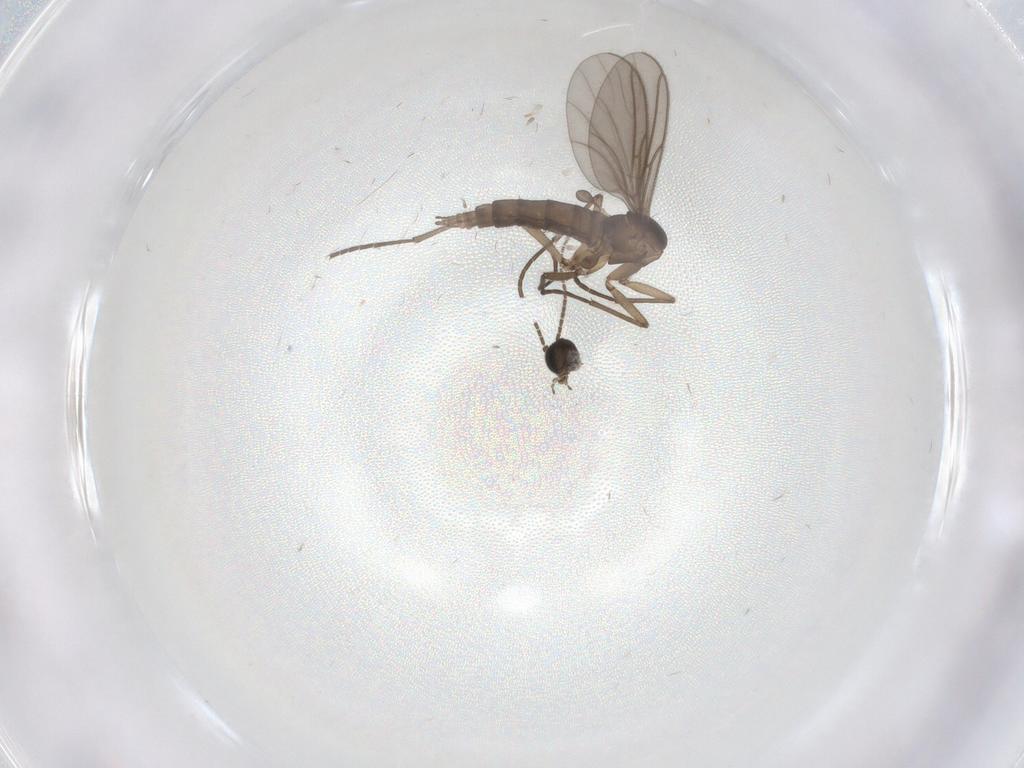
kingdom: Animalia
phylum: Arthropoda
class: Insecta
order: Diptera
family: Chironomidae
